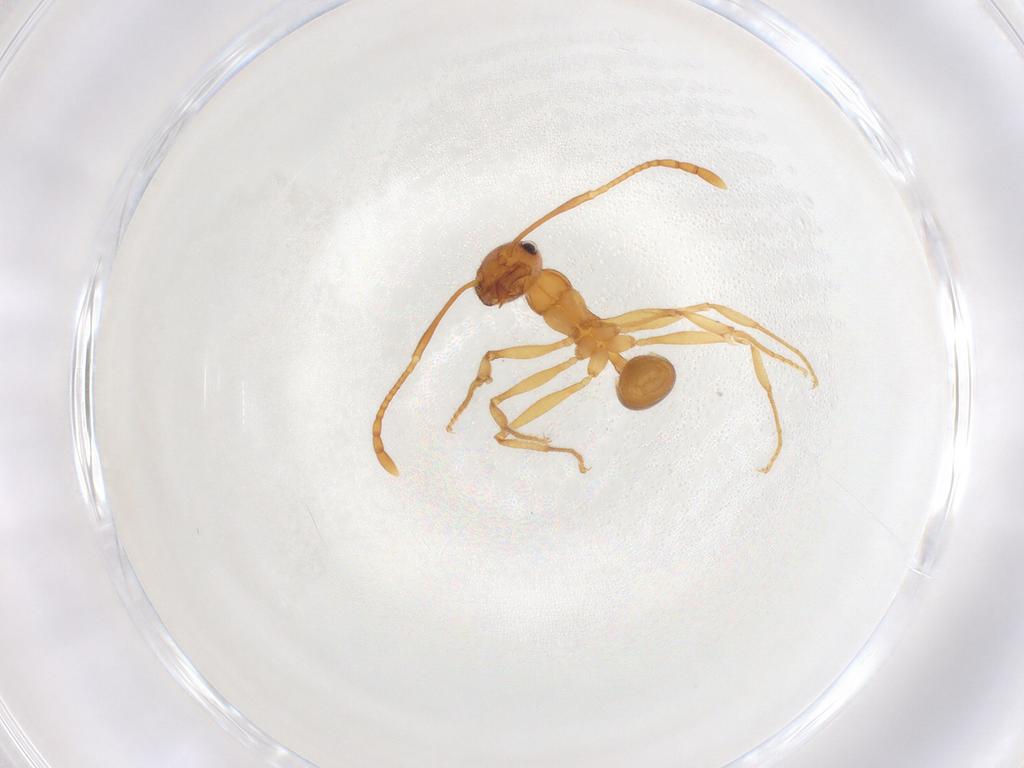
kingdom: Animalia
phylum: Arthropoda
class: Insecta
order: Hymenoptera
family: Formicidae
